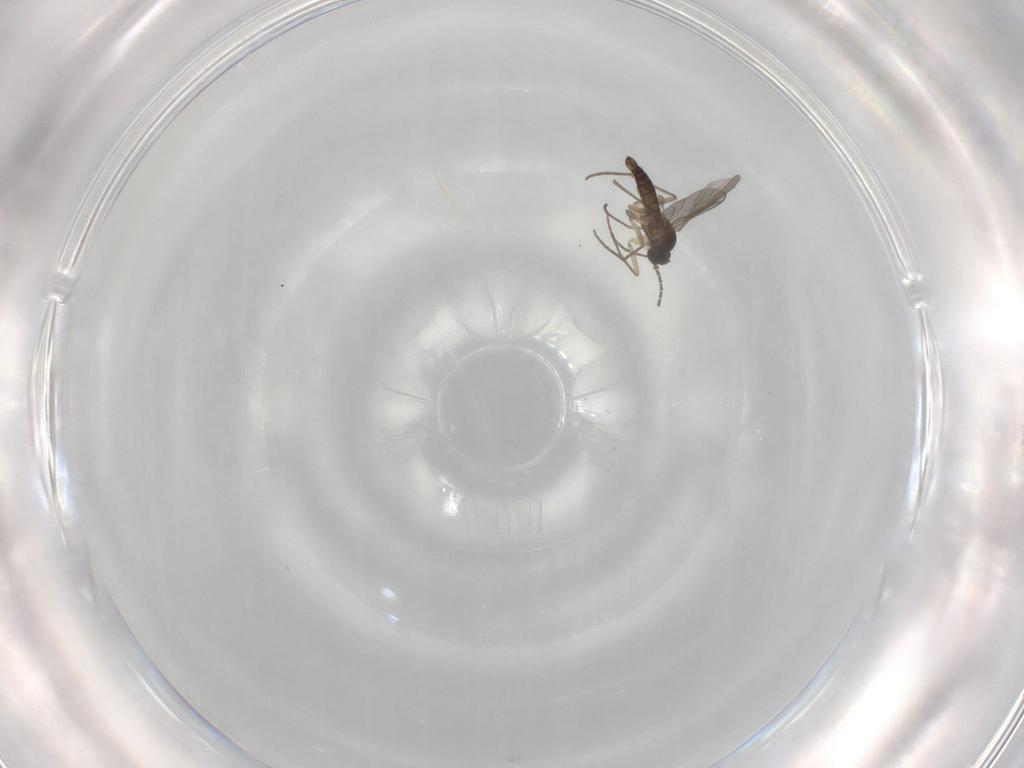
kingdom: Animalia
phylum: Arthropoda
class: Insecta
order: Diptera
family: Sciaridae
